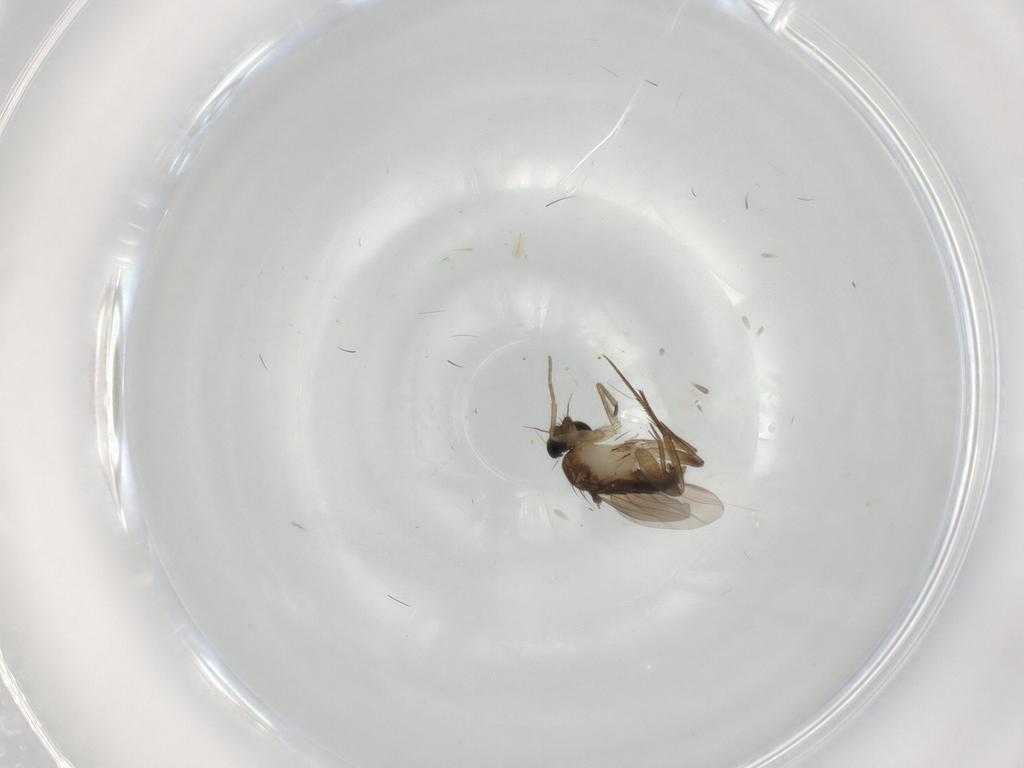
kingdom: Animalia
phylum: Arthropoda
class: Insecta
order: Diptera
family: Phoridae
